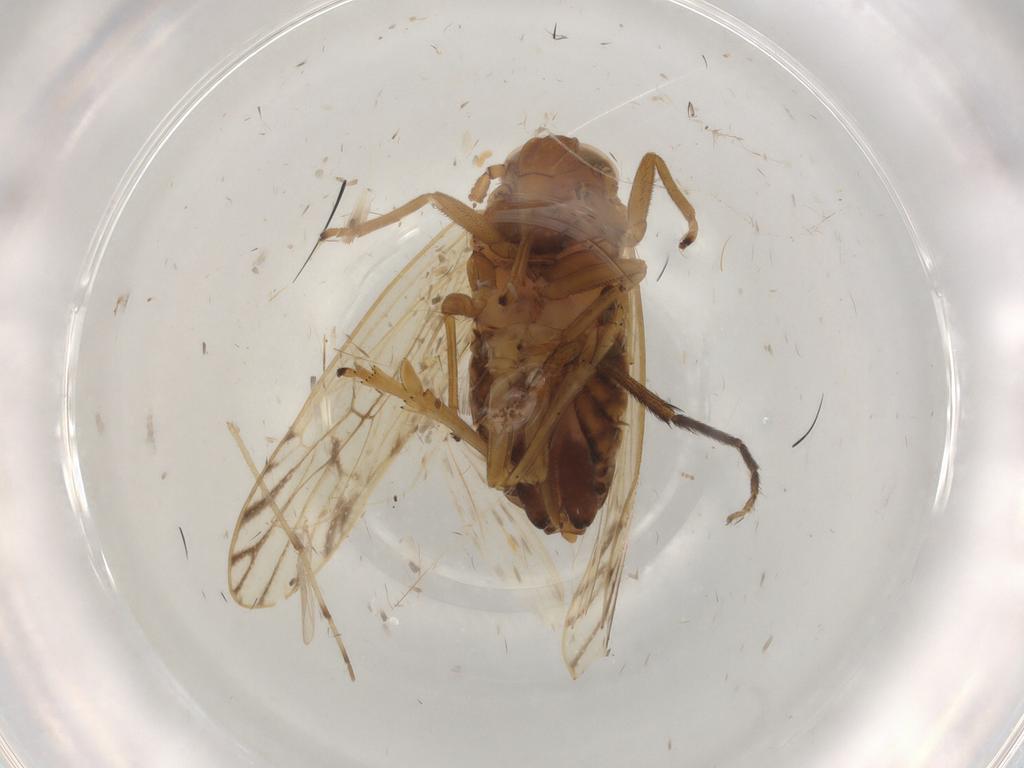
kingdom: Animalia
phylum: Arthropoda
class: Insecta
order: Hemiptera
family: Delphacidae
